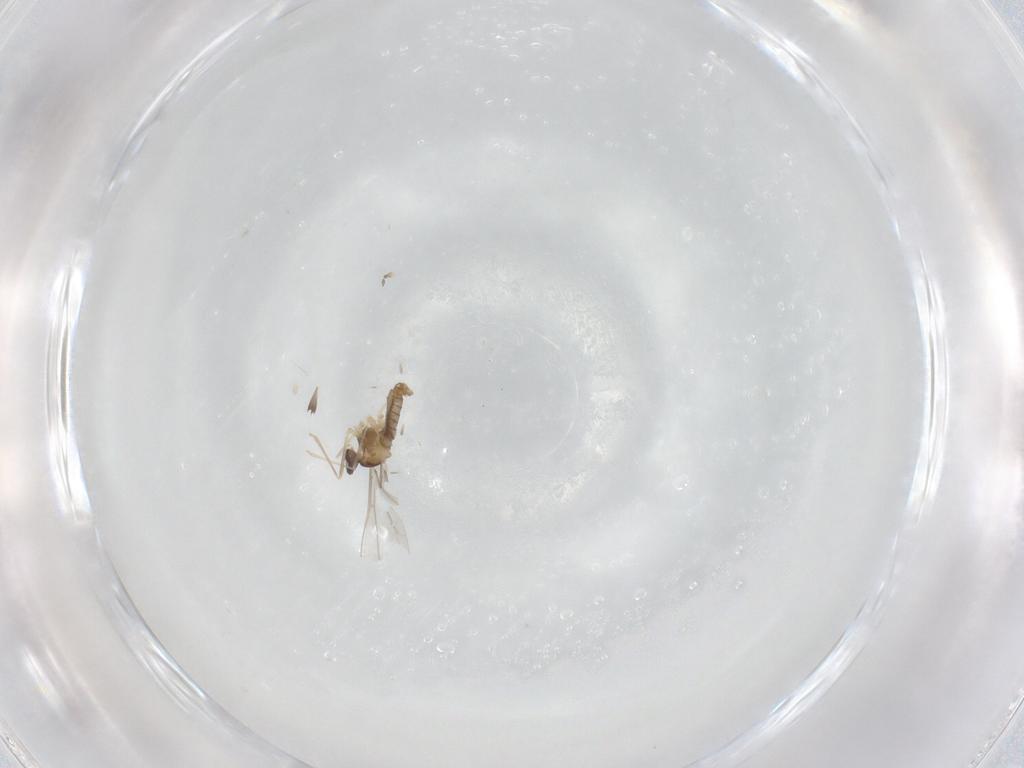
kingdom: Animalia
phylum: Arthropoda
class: Insecta
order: Diptera
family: Cecidomyiidae
